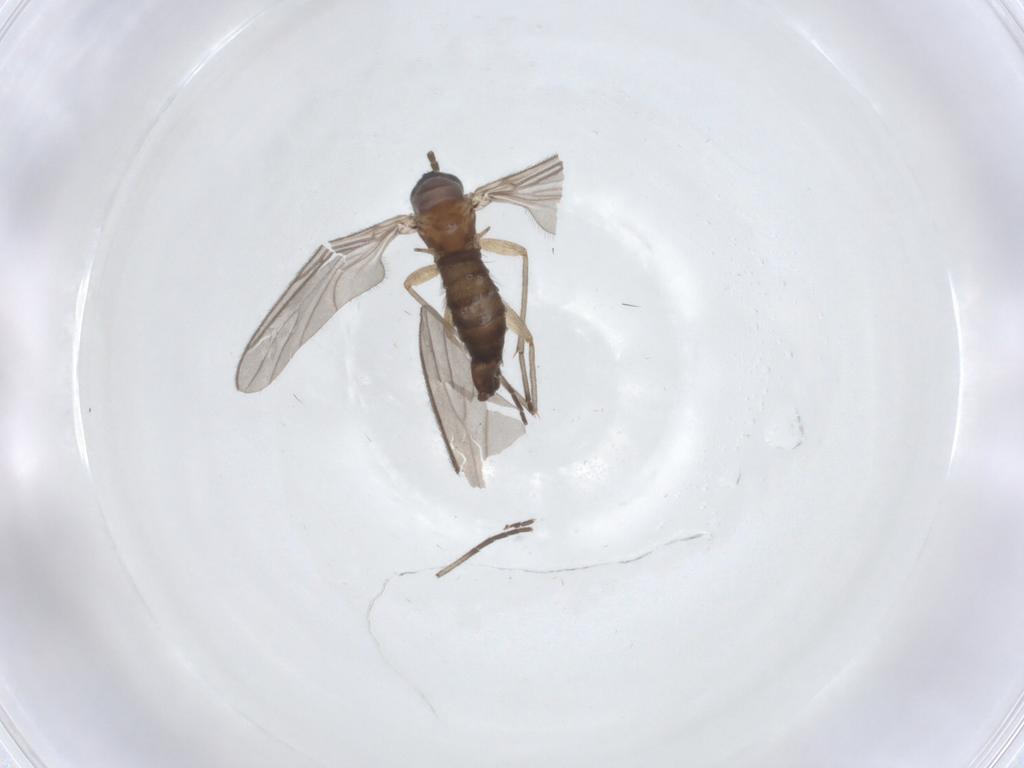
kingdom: Animalia
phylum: Arthropoda
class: Insecta
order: Diptera
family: Sciaridae
